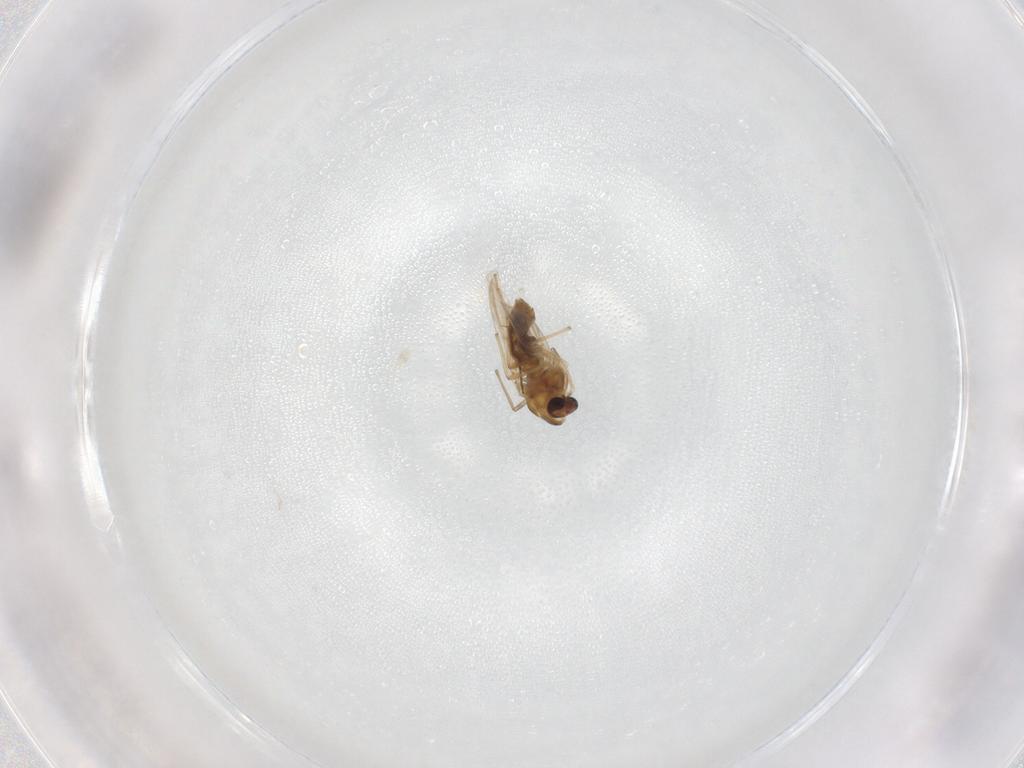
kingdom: Animalia
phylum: Arthropoda
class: Insecta
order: Diptera
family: Chironomidae
